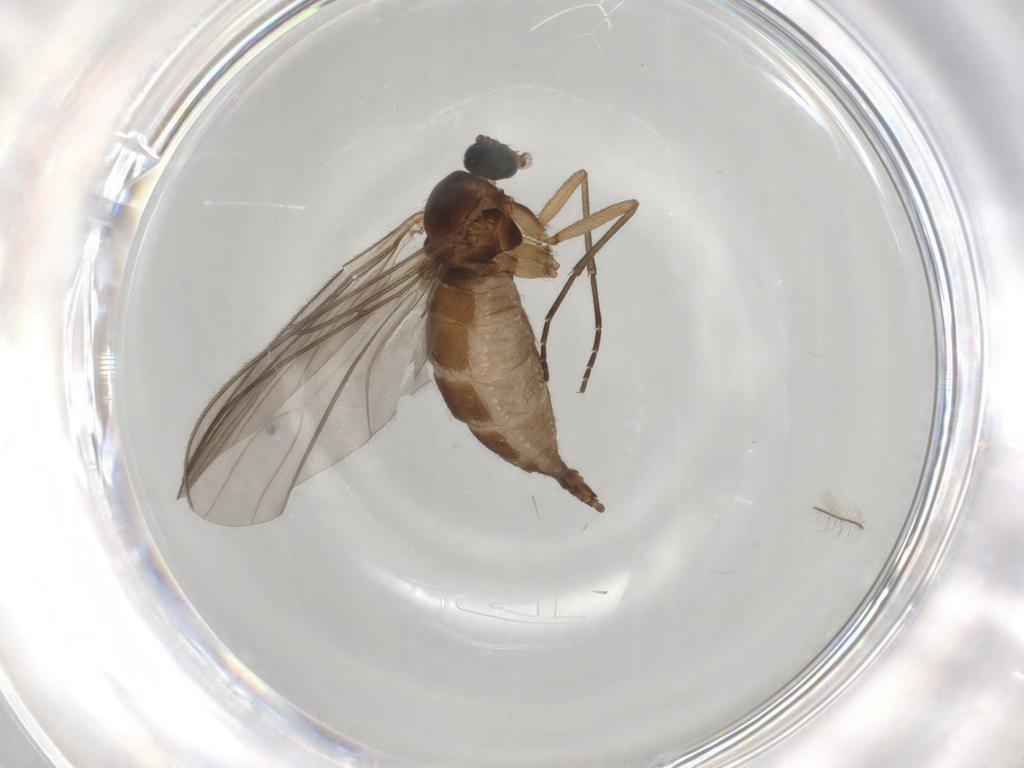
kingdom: Animalia
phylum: Arthropoda
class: Insecta
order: Diptera
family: Sciaridae
